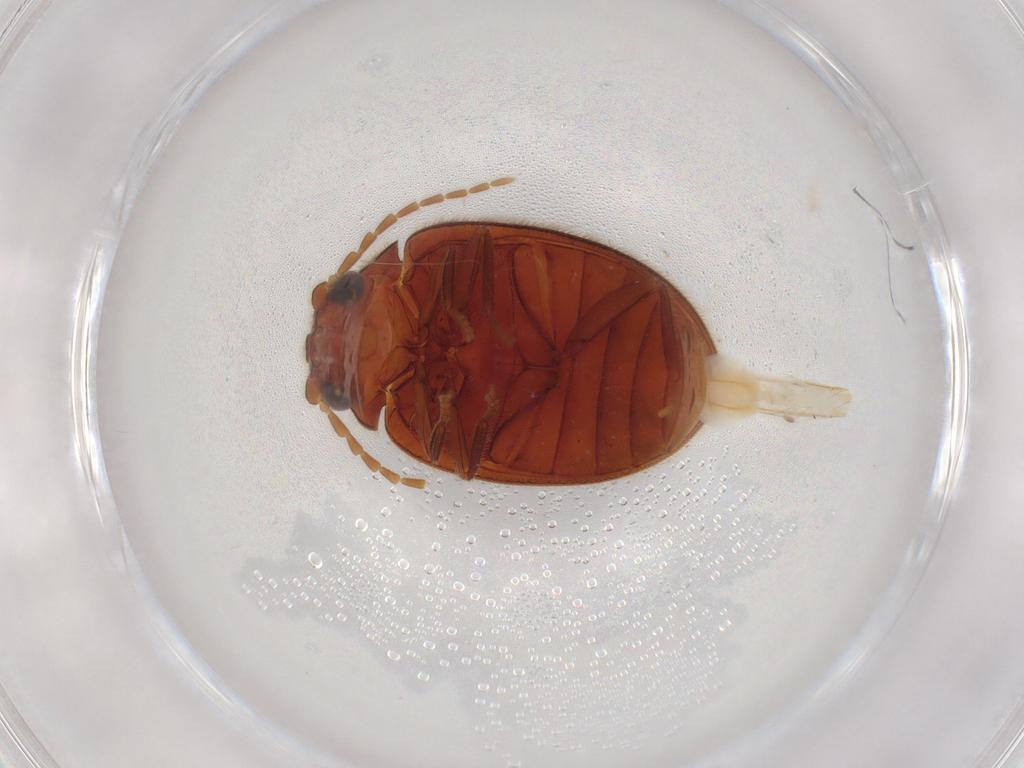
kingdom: Animalia
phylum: Arthropoda
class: Insecta
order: Coleoptera
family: Scirtidae
